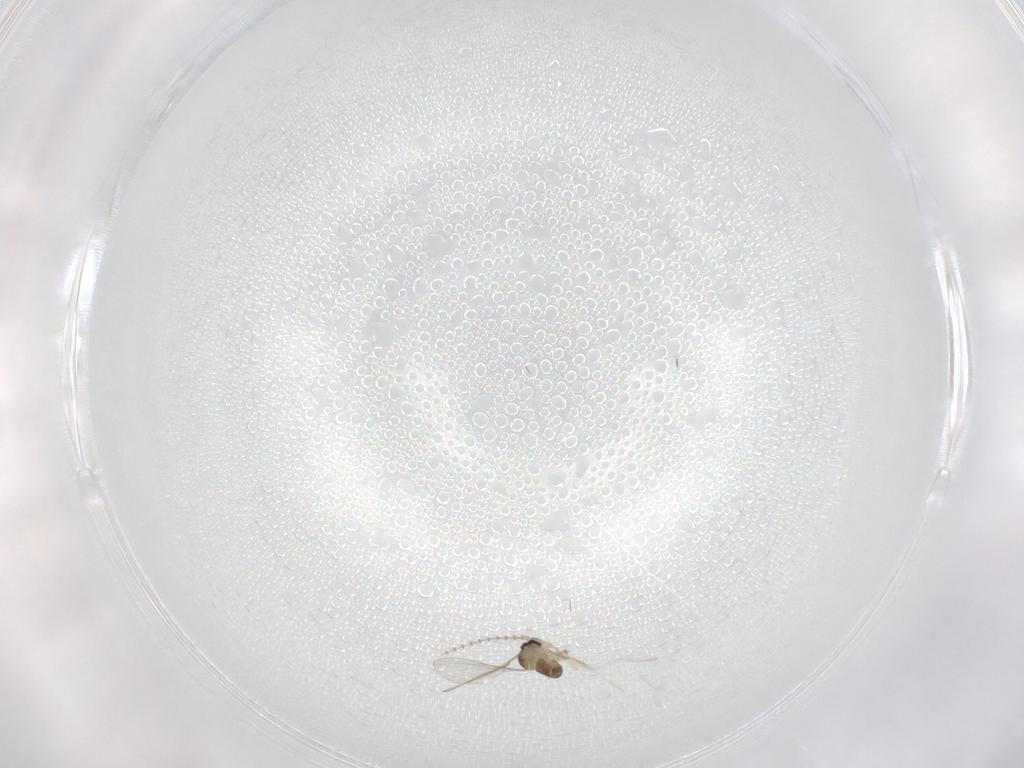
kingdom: Animalia
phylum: Arthropoda
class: Insecta
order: Diptera
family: Cecidomyiidae
